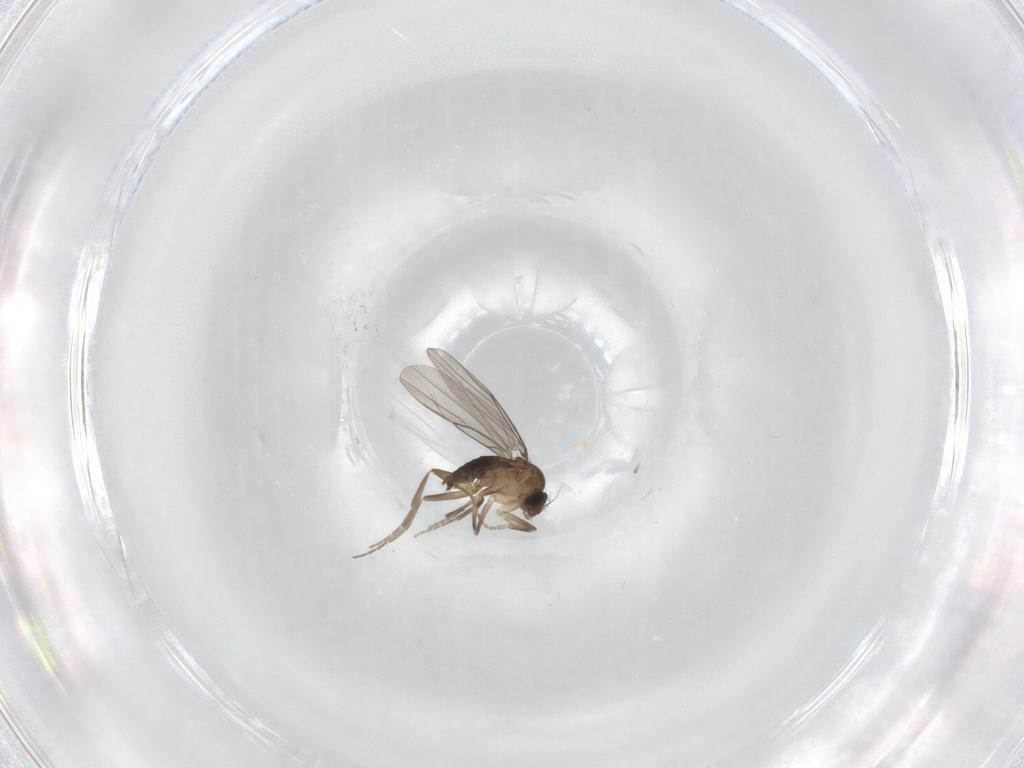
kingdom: Animalia
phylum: Arthropoda
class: Insecta
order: Diptera
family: Phoridae
